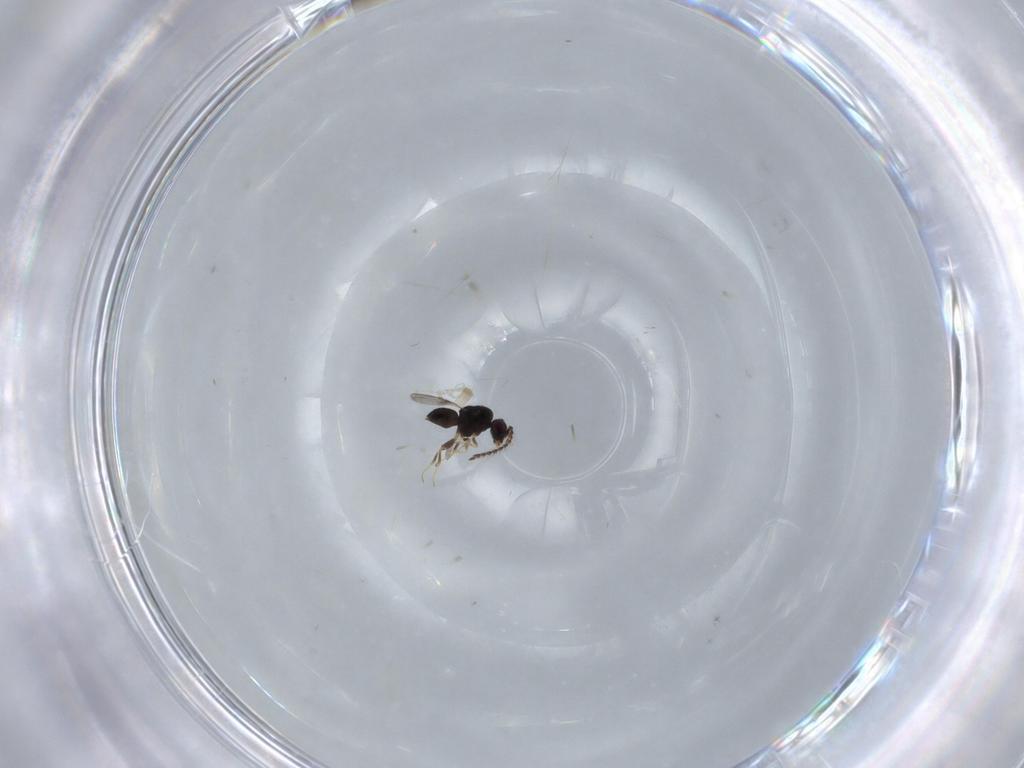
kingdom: Animalia
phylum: Arthropoda
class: Insecta
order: Hymenoptera
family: Ceraphronidae
